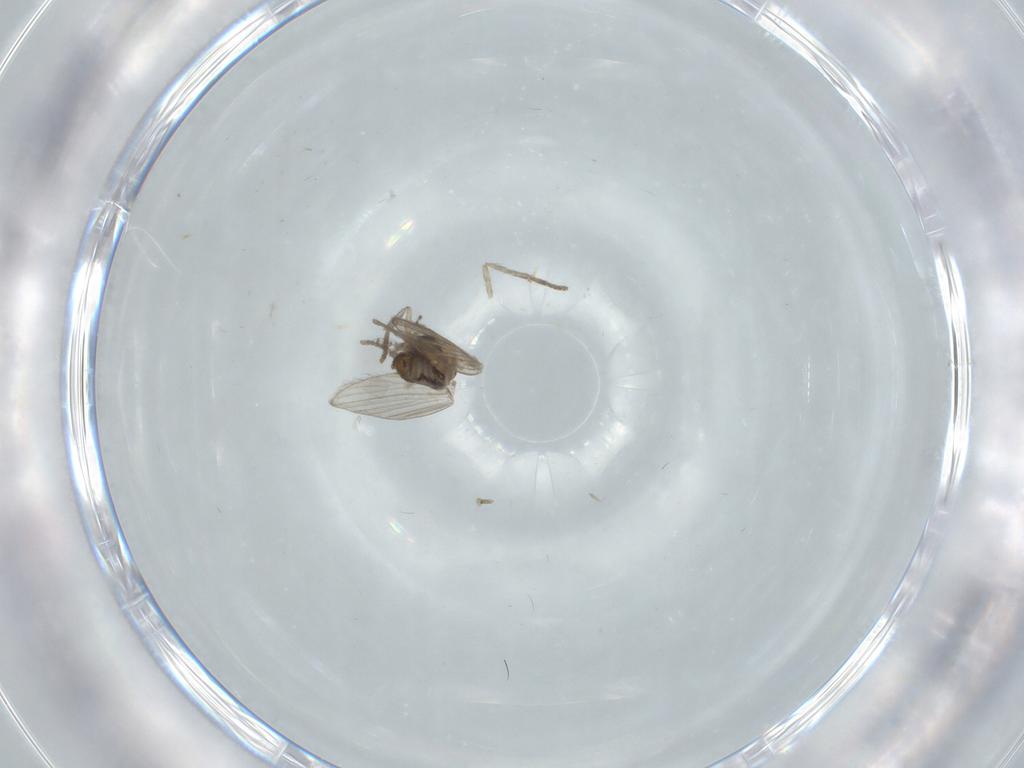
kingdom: Animalia
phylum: Arthropoda
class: Insecta
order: Diptera
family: Psychodidae
